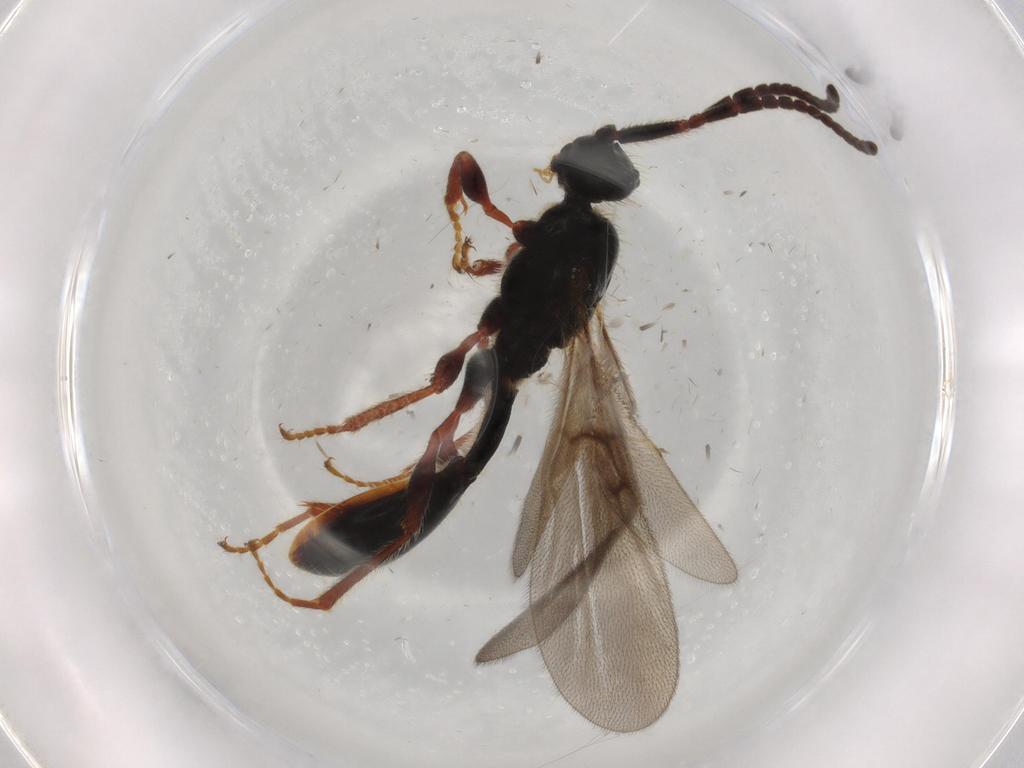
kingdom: Animalia
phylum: Arthropoda
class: Insecta
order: Hymenoptera
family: Diapriidae
